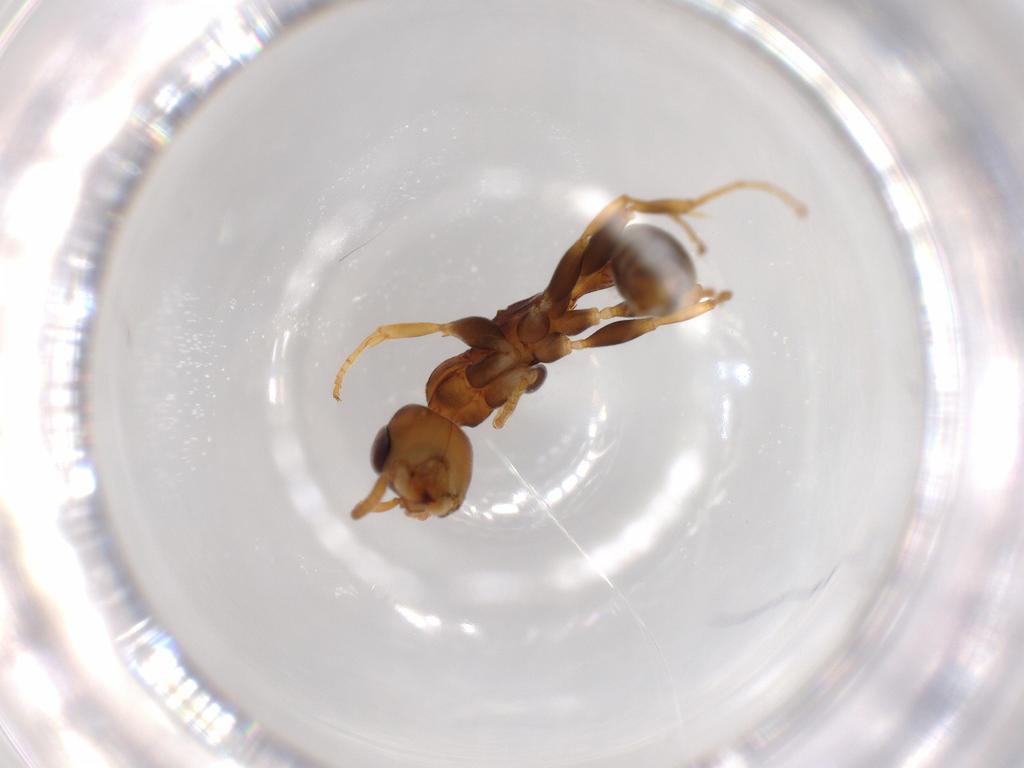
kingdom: Animalia
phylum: Arthropoda
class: Insecta
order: Hymenoptera
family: Formicidae
